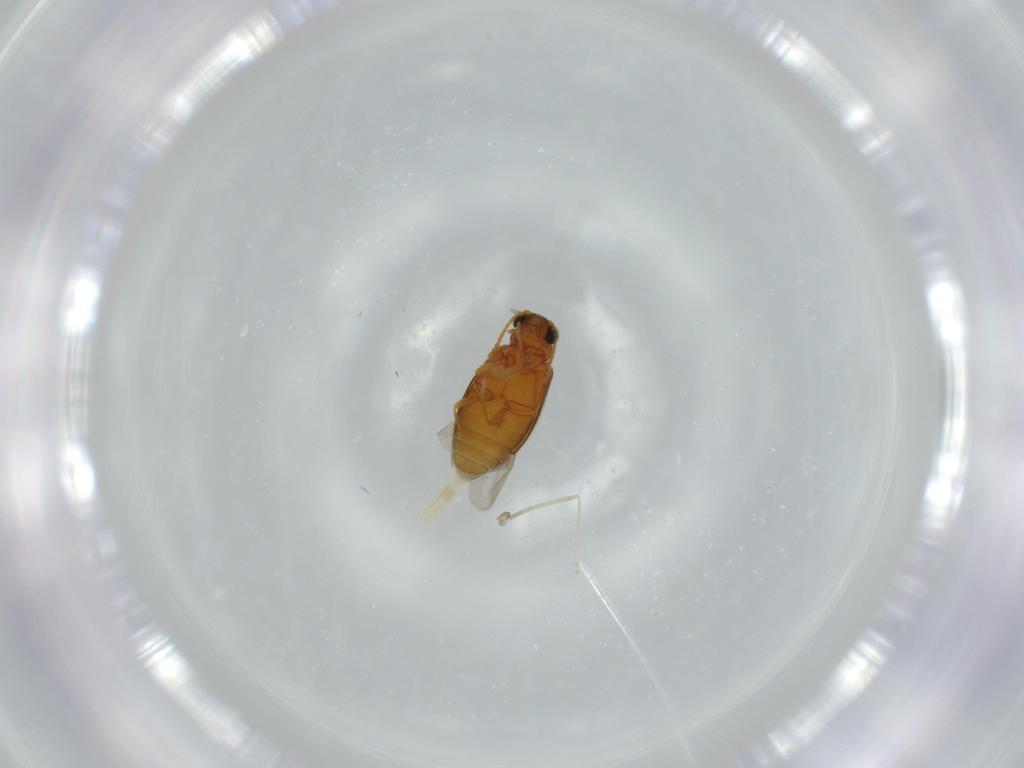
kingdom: Animalia
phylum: Arthropoda
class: Insecta
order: Coleoptera
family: Aderidae
